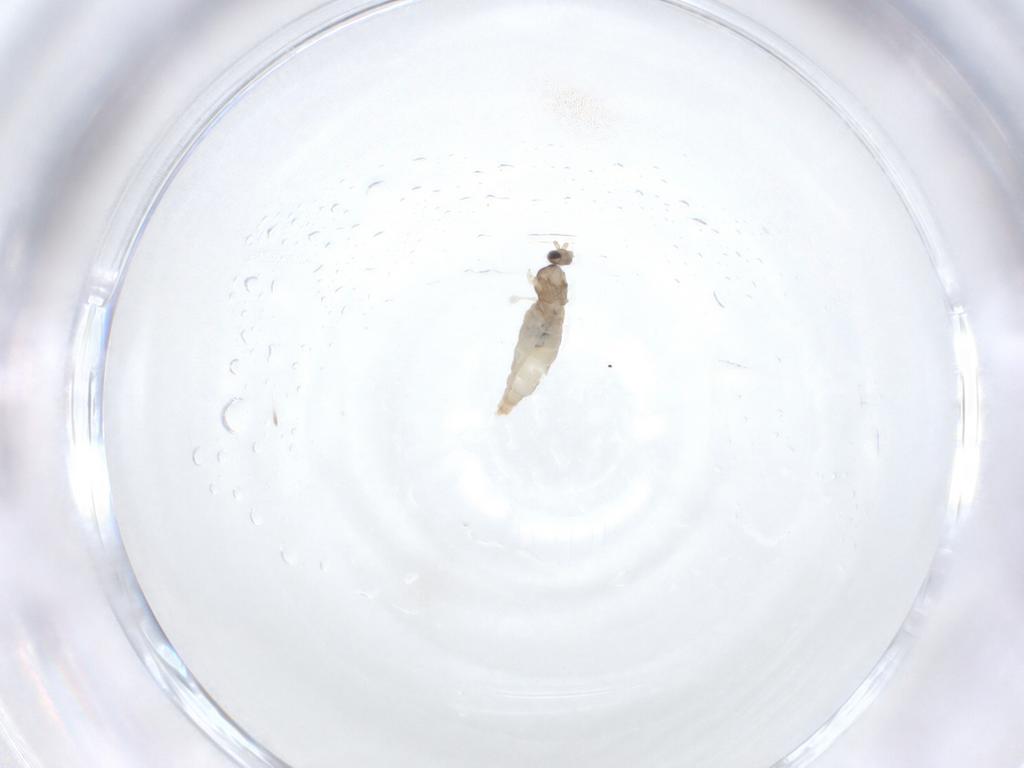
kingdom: Animalia
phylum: Arthropoda
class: Insecta
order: Diptera
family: Cecidomyiidae
